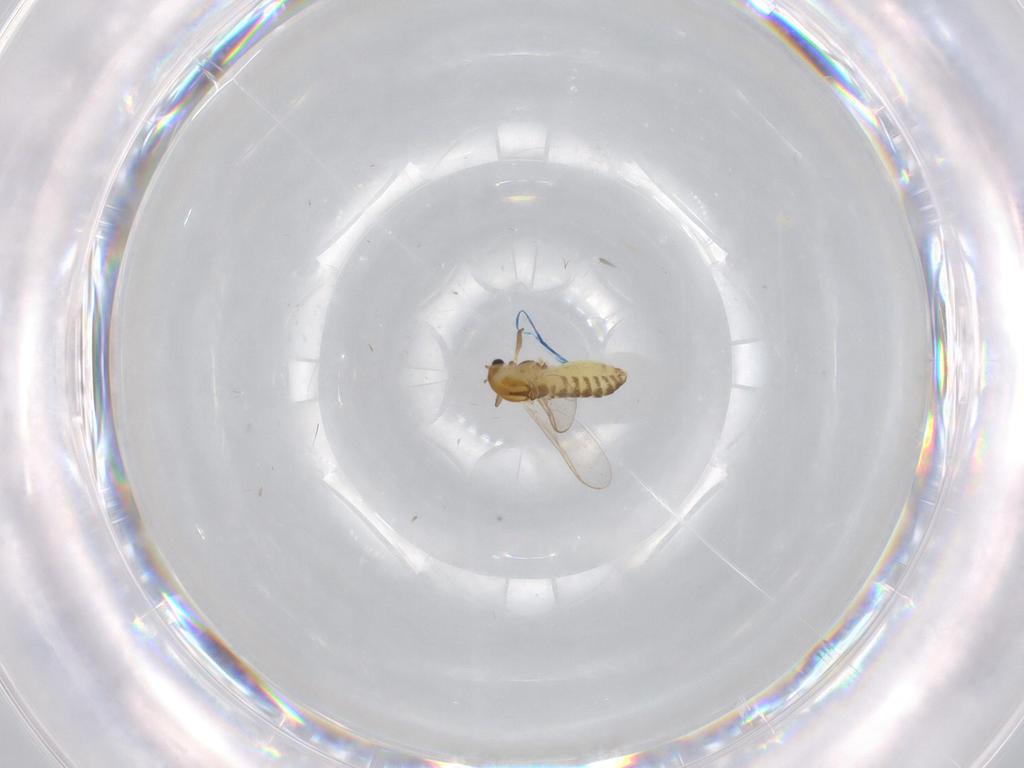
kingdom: Animalia
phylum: Arthropoda
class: Insecta
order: Diptera
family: Chironomidae
